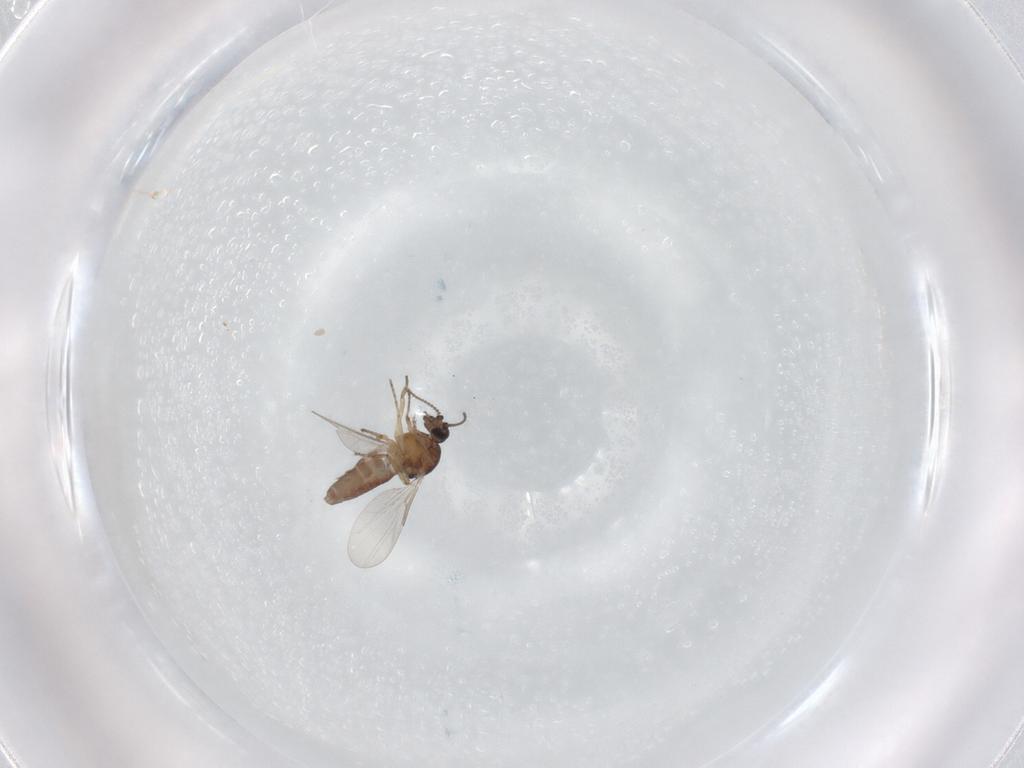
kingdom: Animalia
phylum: Arthropoda
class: Insecta
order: Diptera
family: Ceratopogonidae
